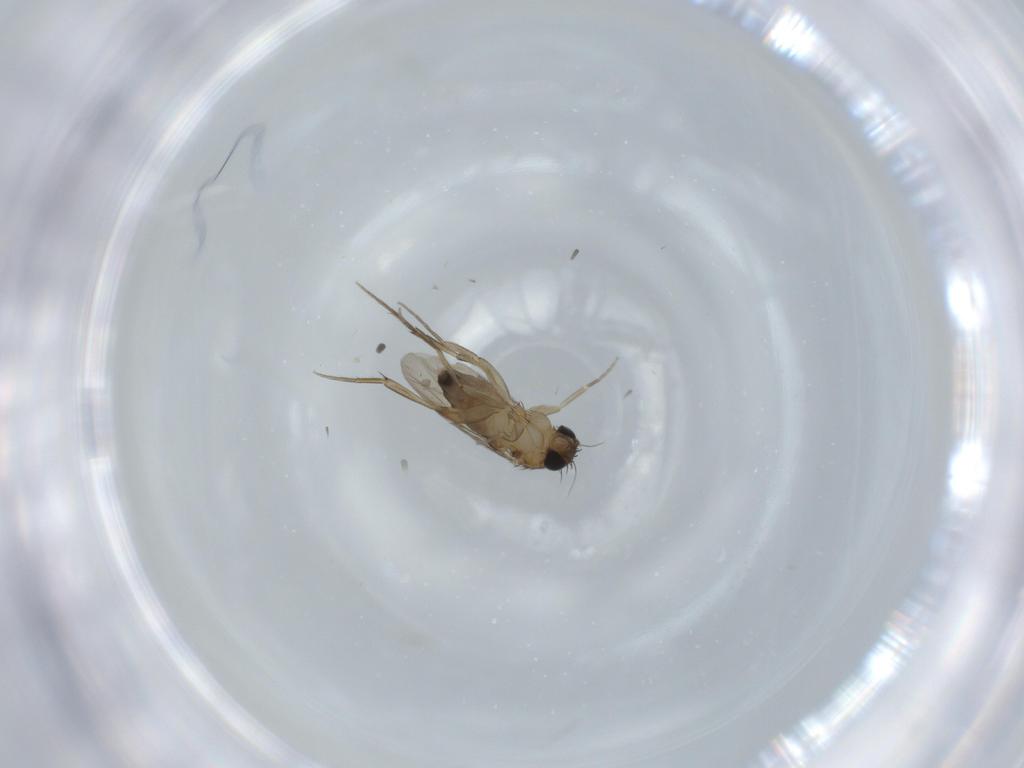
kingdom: Animalia
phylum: Arthropoda
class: Insecta
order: Diptera
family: Phoridae
